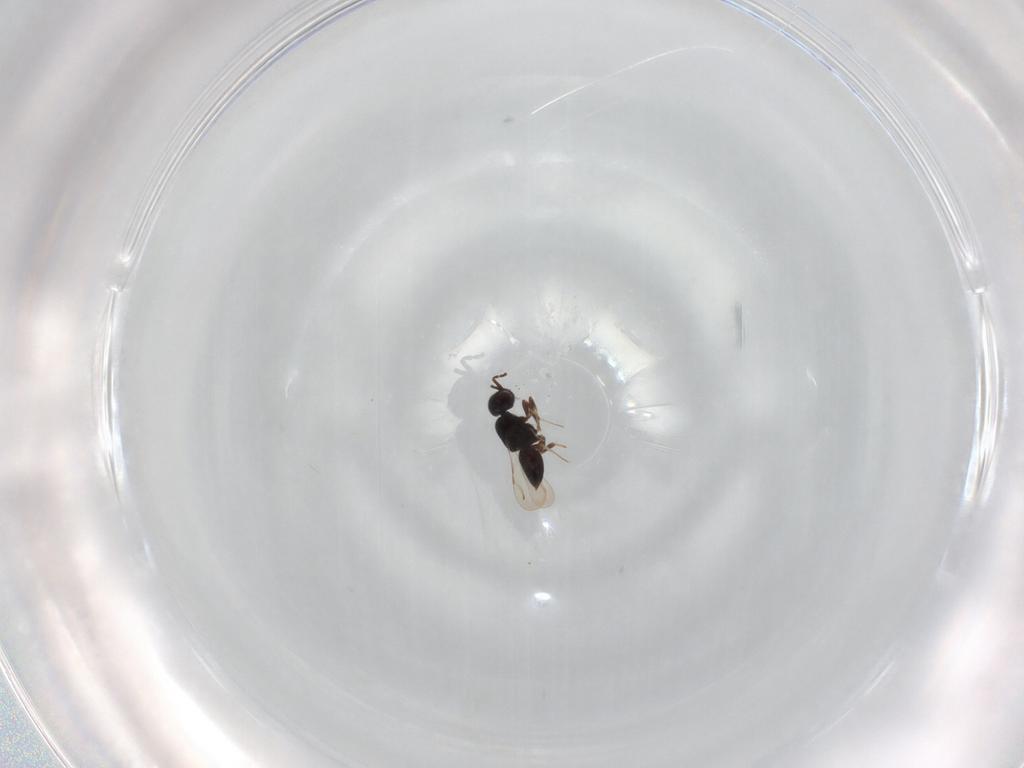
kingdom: Animalia
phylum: Arthropoda
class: Insecta
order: Hymenoptera
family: Ceraphronidae
